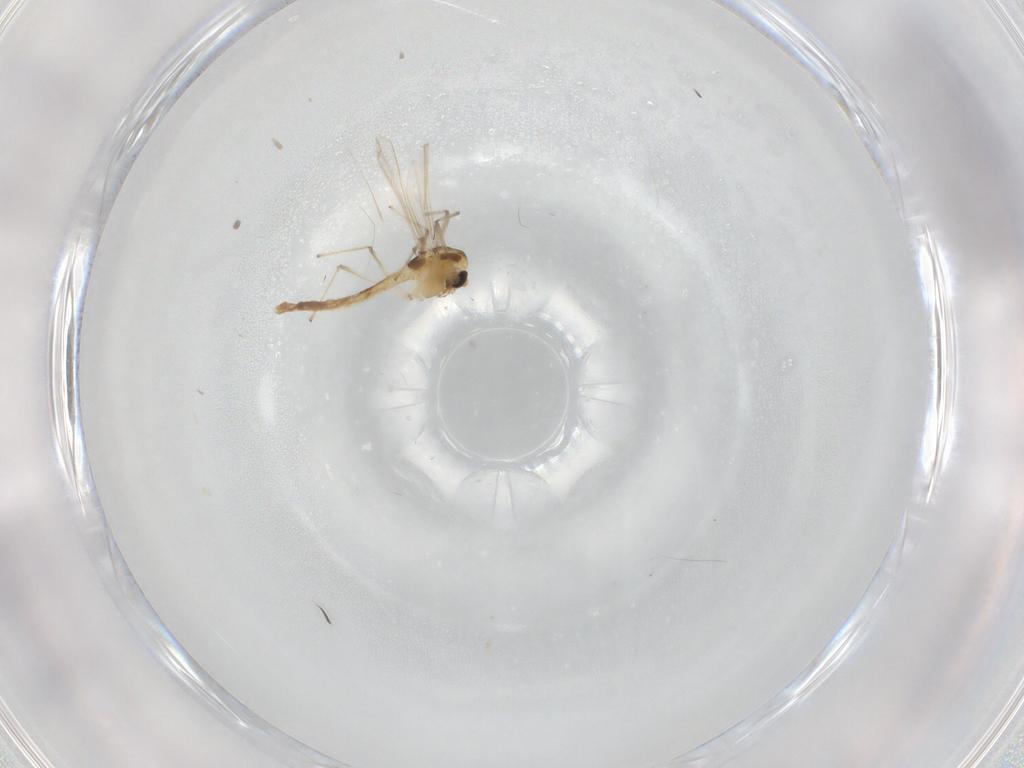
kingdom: Animalia
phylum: Arthropoda
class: Insecta
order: Diptera
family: Chironomidae
